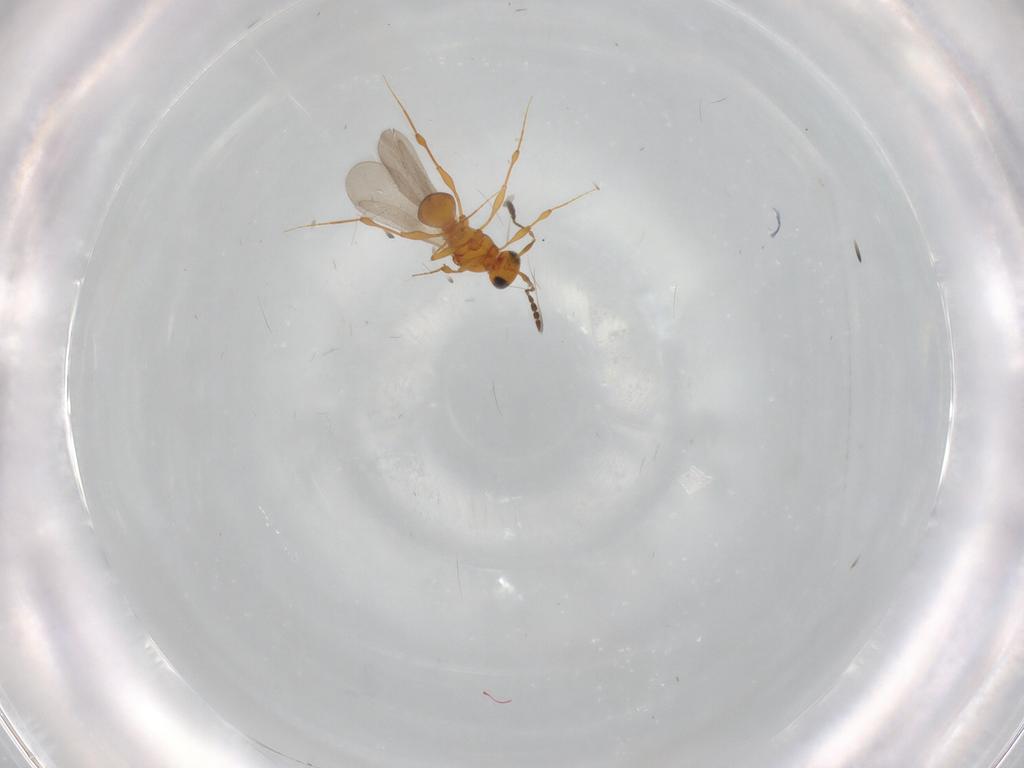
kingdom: Animalia
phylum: Arthropoda
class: Insecta
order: Hymenoptera
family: Platygastridae
